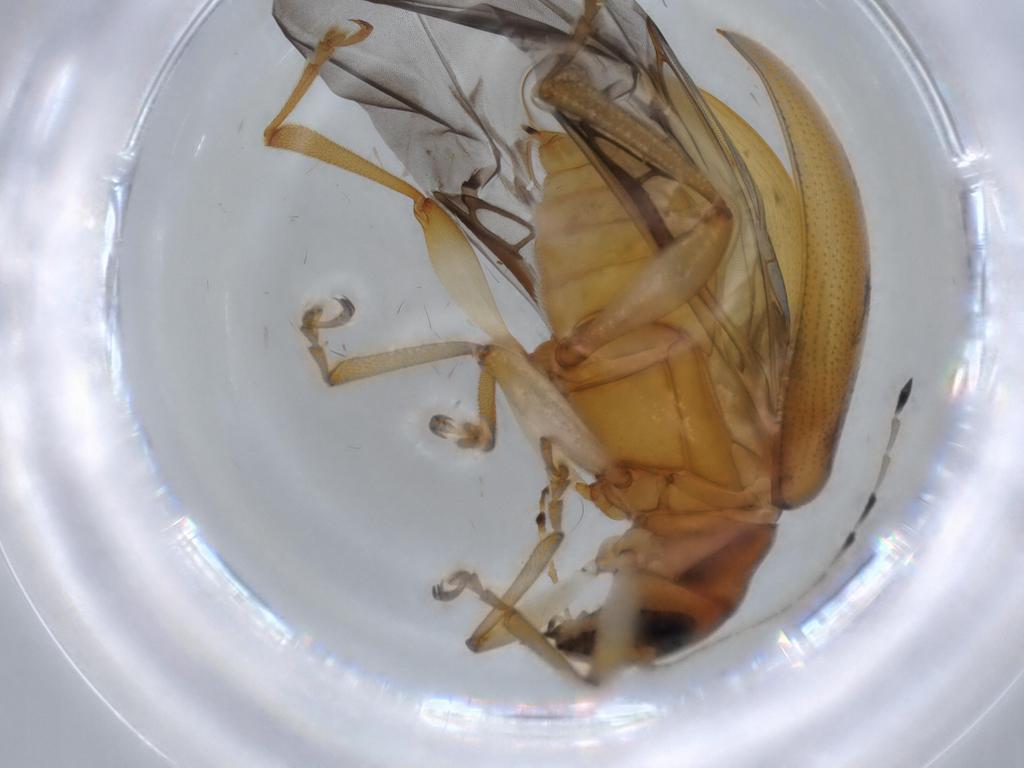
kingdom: Animalia
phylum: Arthropoda
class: Insecta
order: Coleoptera
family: Chrysomelidae
